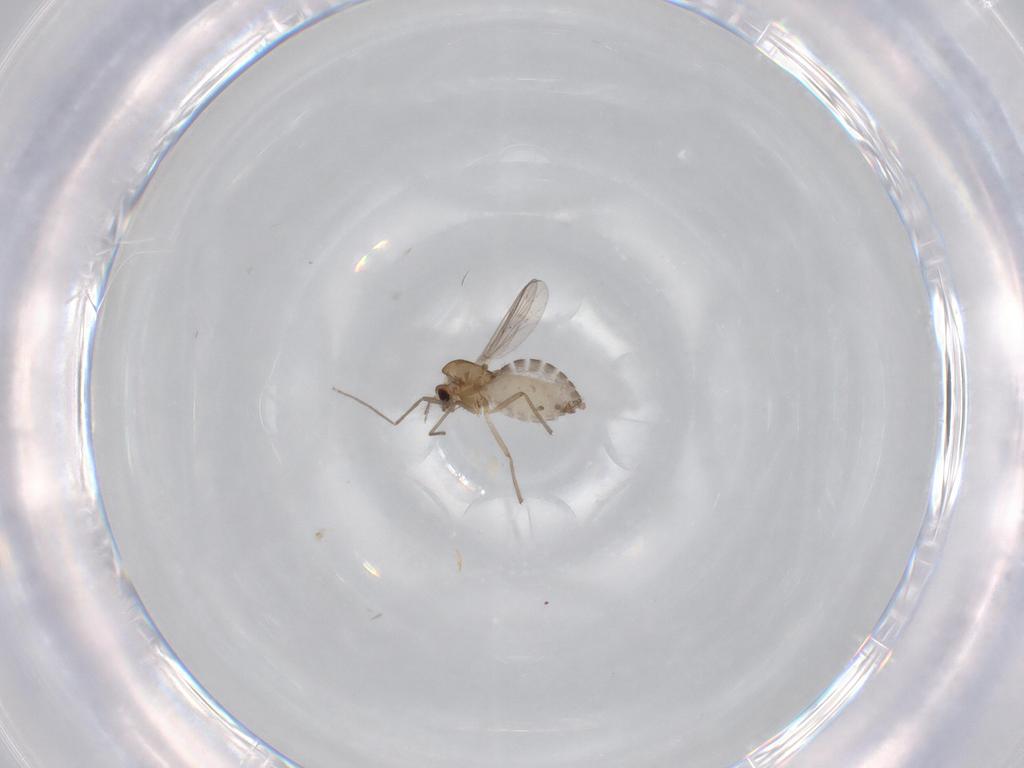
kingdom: Animalia
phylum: Arthropoda
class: Insecta
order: Diptera
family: Chironomidae
